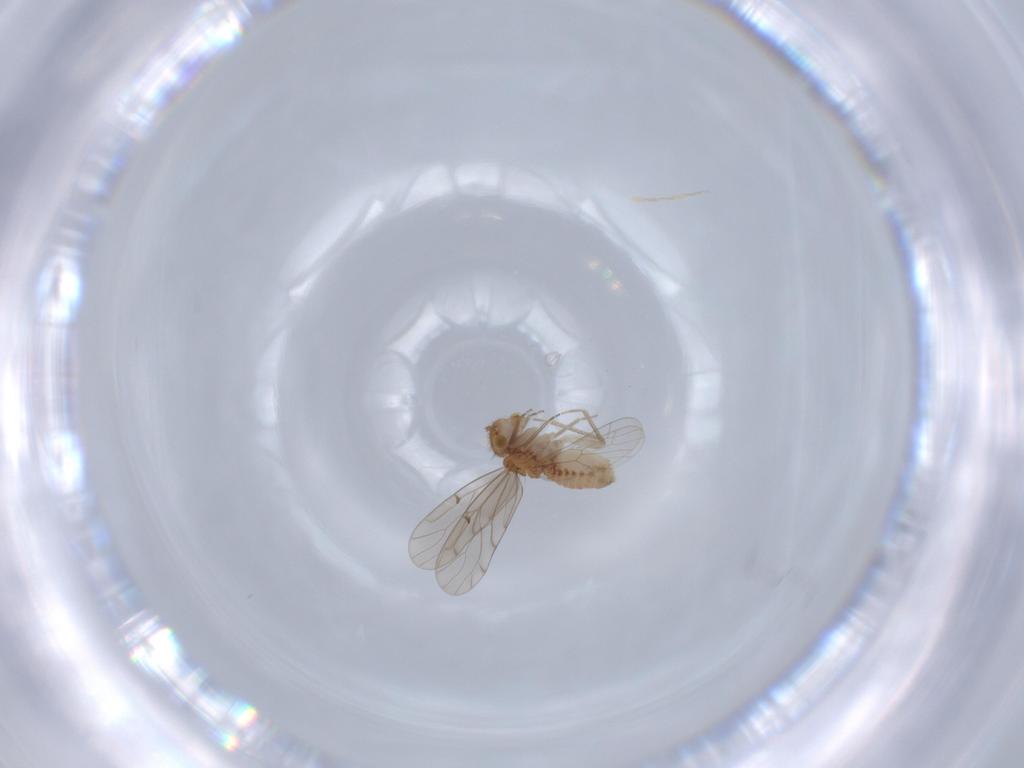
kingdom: Animalia
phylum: Arthropoda
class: Insecta
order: Psocodea
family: Ectopsocidae
